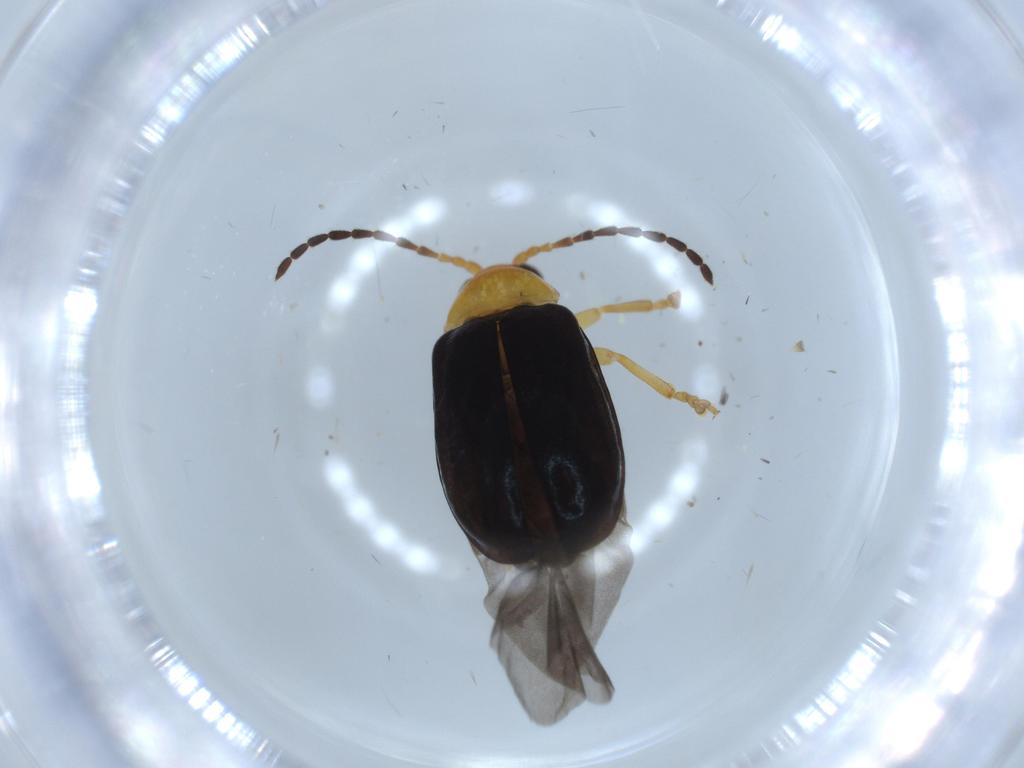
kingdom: Animalia
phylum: Arthropoda
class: Insecta
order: Coleoptera
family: Chrysomelidae
